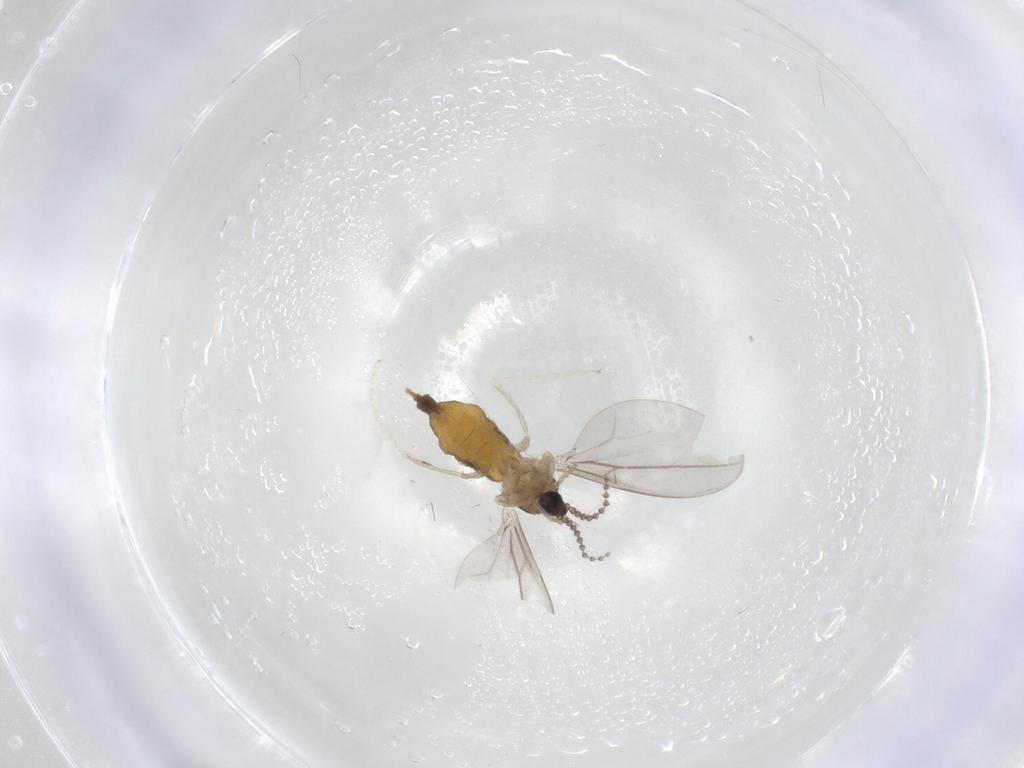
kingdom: Animalia
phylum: Arthropoda
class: Insecta
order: Diptera
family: Cecidomyiidae
